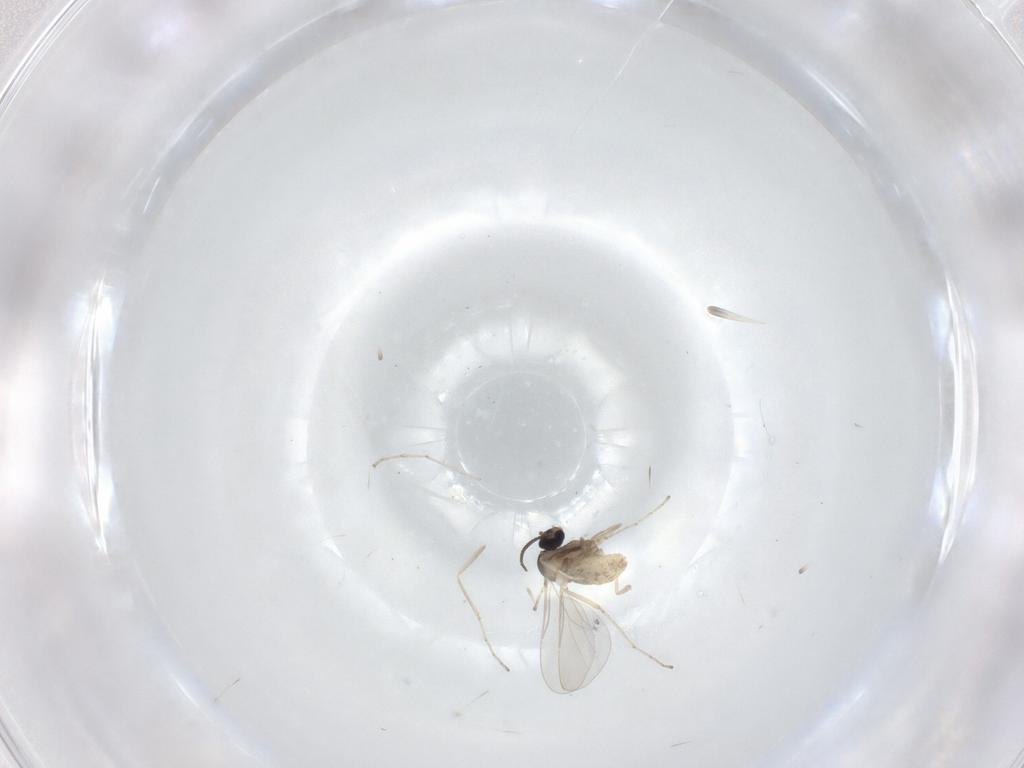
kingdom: Animalia
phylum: Arthropoda
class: Insecta
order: Diptera
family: Cecidomyiidae
